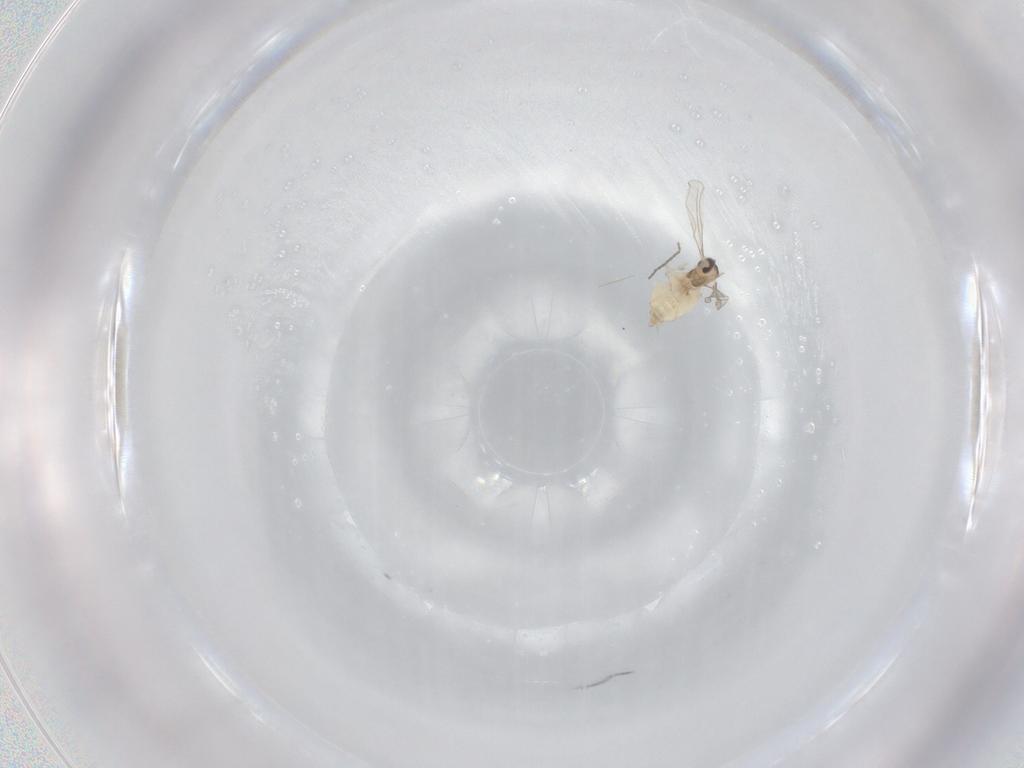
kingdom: Animalia
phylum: Arthropoda
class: Insecta
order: Diptera
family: Cecidomyiidae
